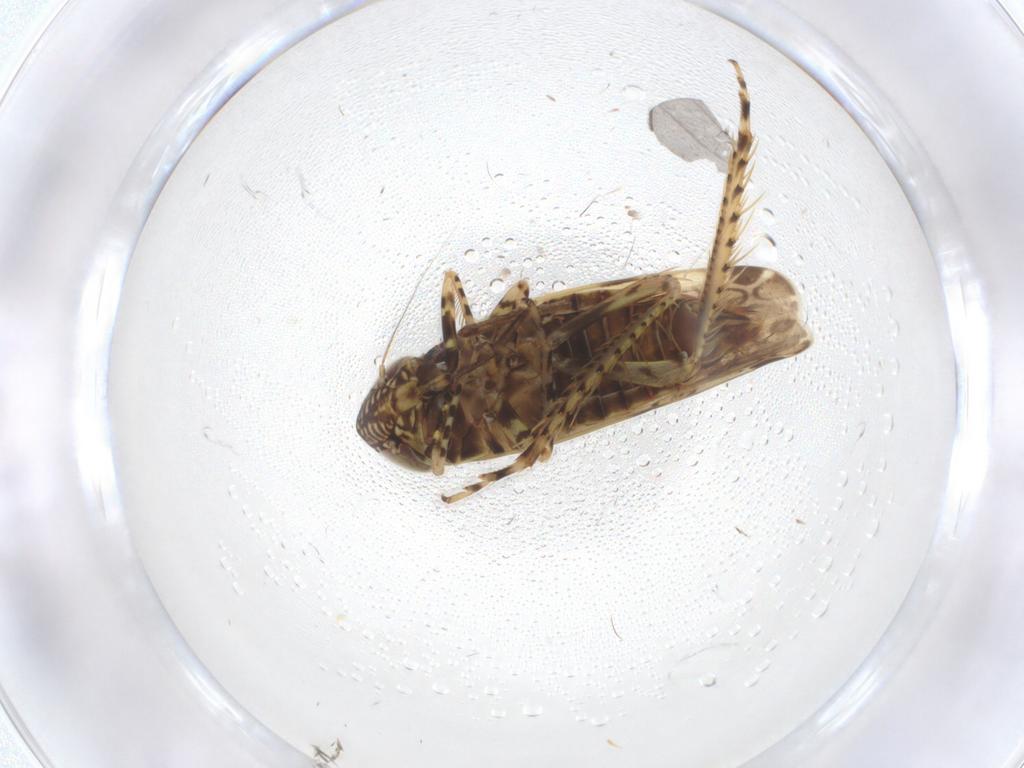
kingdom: Animalia
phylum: Arthropoda
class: Insecta
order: Hemiptera
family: Cicadellidae
